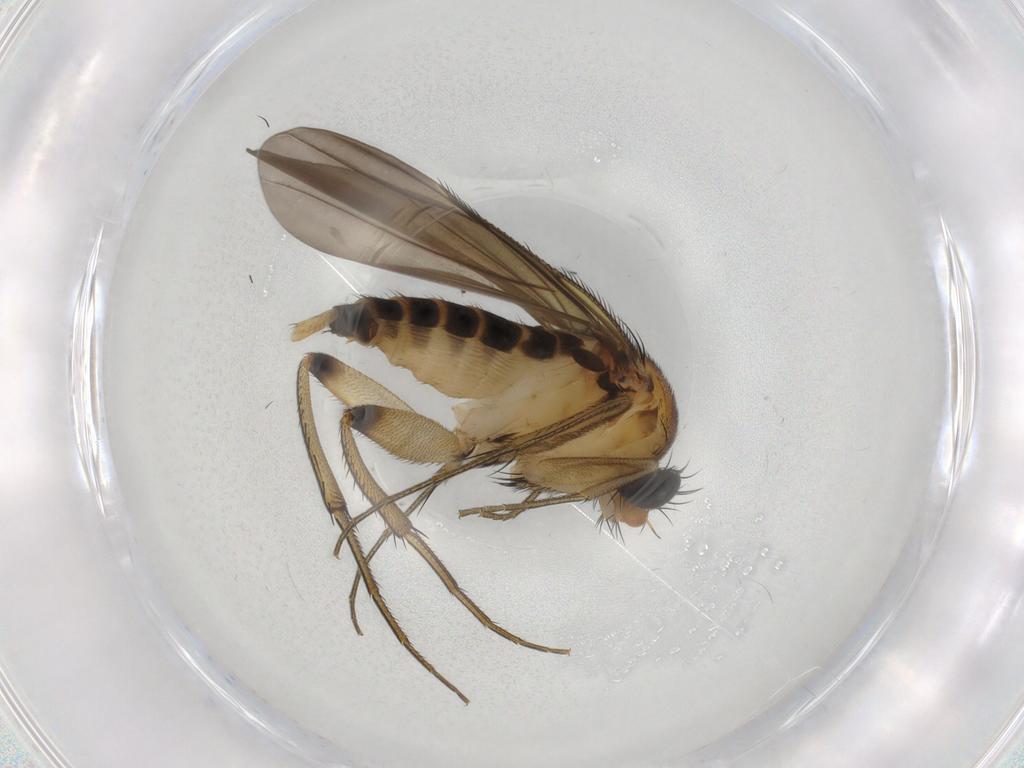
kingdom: Animalia
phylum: Arthropoda
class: Insecta
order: Diptera
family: Phoridae
